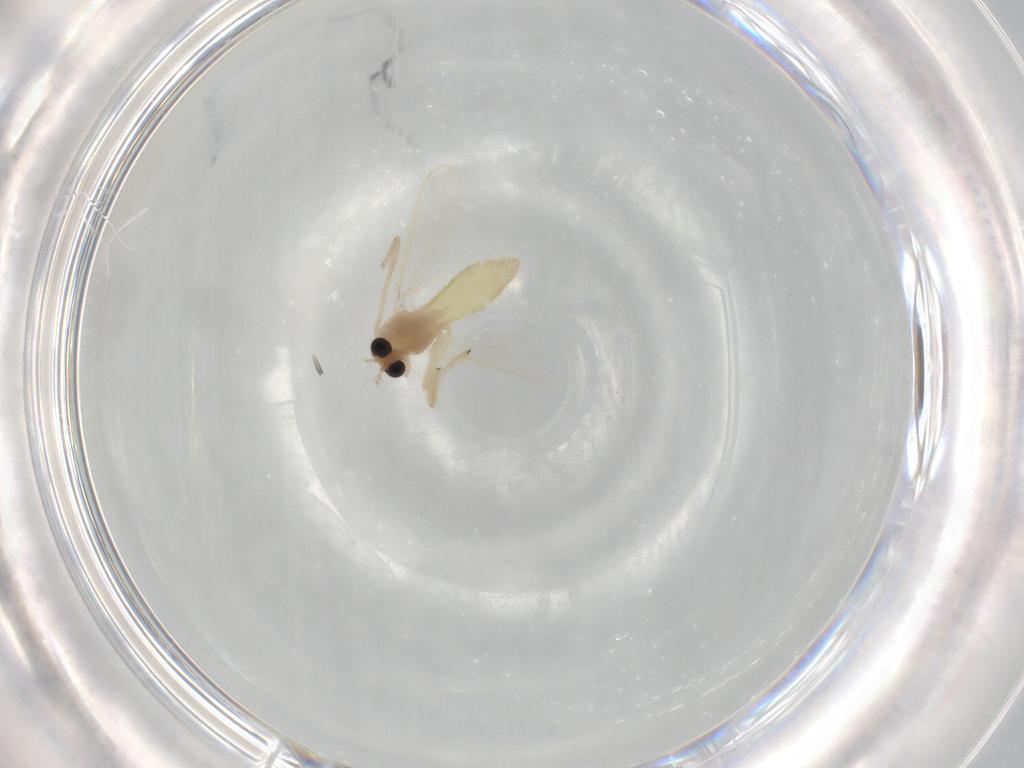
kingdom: Animalia
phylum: Arthropoda
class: Insecta
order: Diptera
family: Chironomidae
